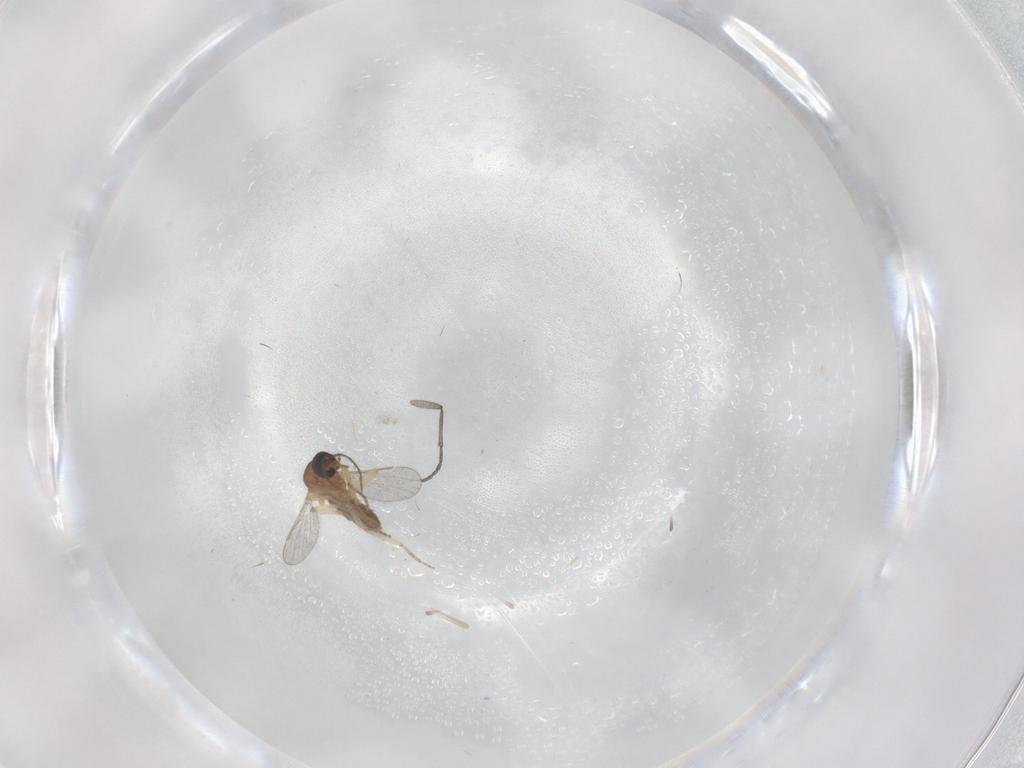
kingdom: Animalia
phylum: Arthropoda
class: Insecta
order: Diptera
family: Ceratopogonidae
